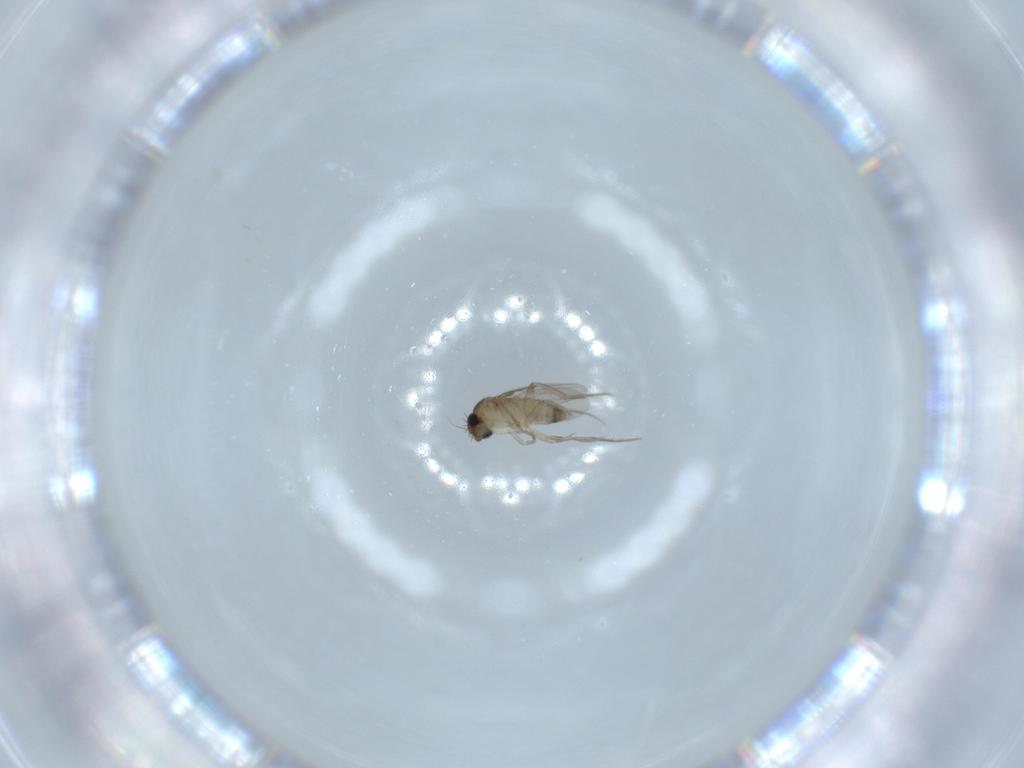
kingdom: Animalia
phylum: Arthropoda
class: Insecta
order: Diptera
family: Phoridae
